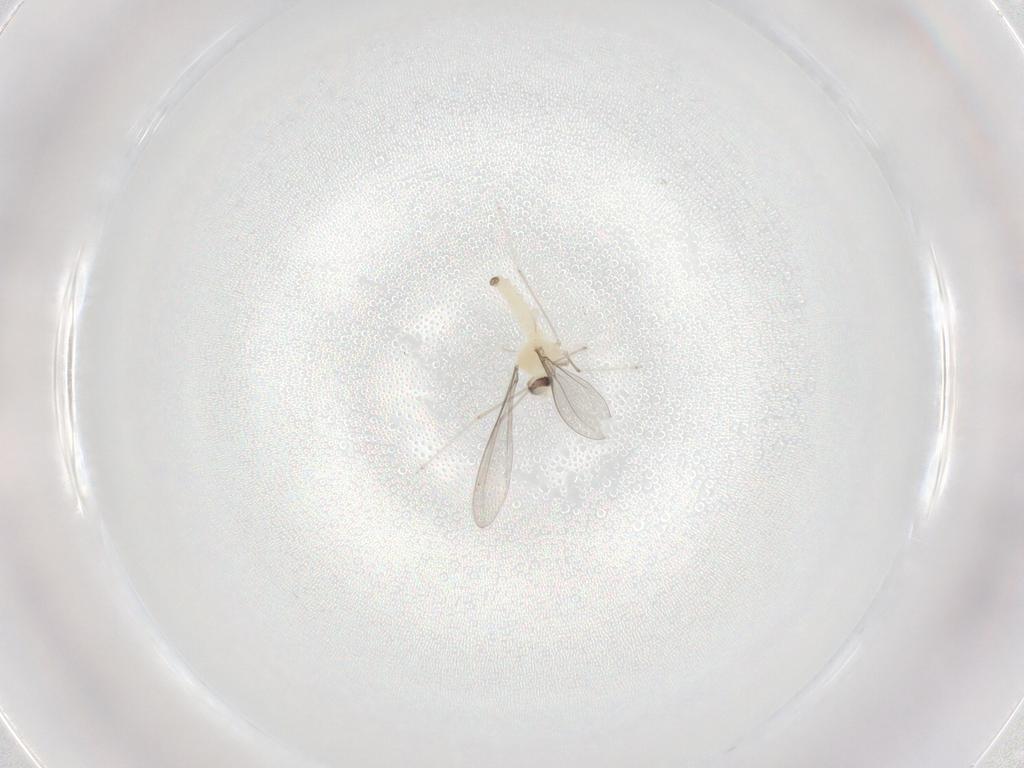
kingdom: Animalia
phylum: Arthropoda
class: Insecta
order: Diptera
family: Cecidomyiidae
